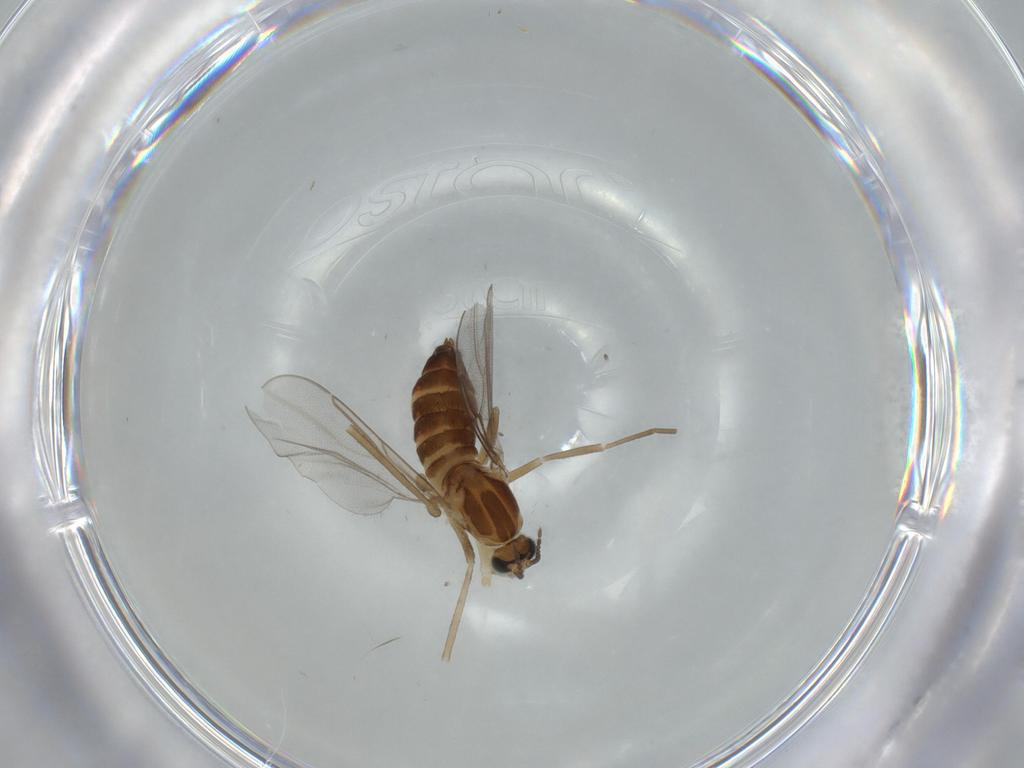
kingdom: Animalia
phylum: Arthropoda
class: Insecta
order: Diptera
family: Cecidomyiidae
